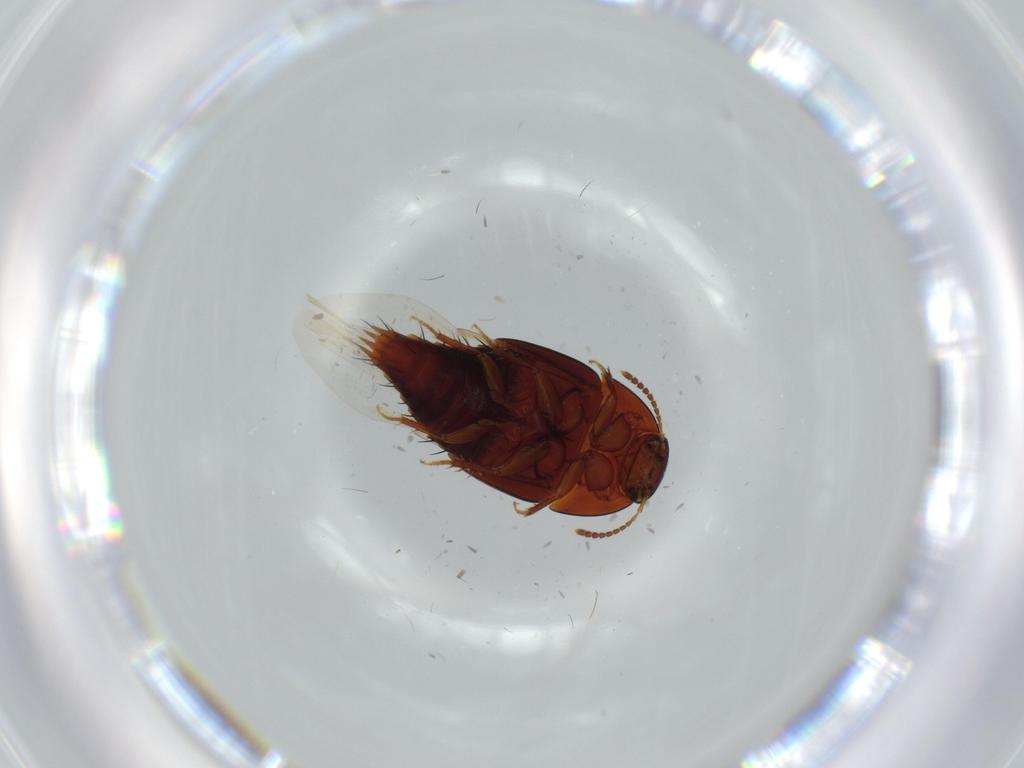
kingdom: Animalia
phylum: Arthropoda
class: Insecta
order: Coleoptera
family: Staphylinidae
